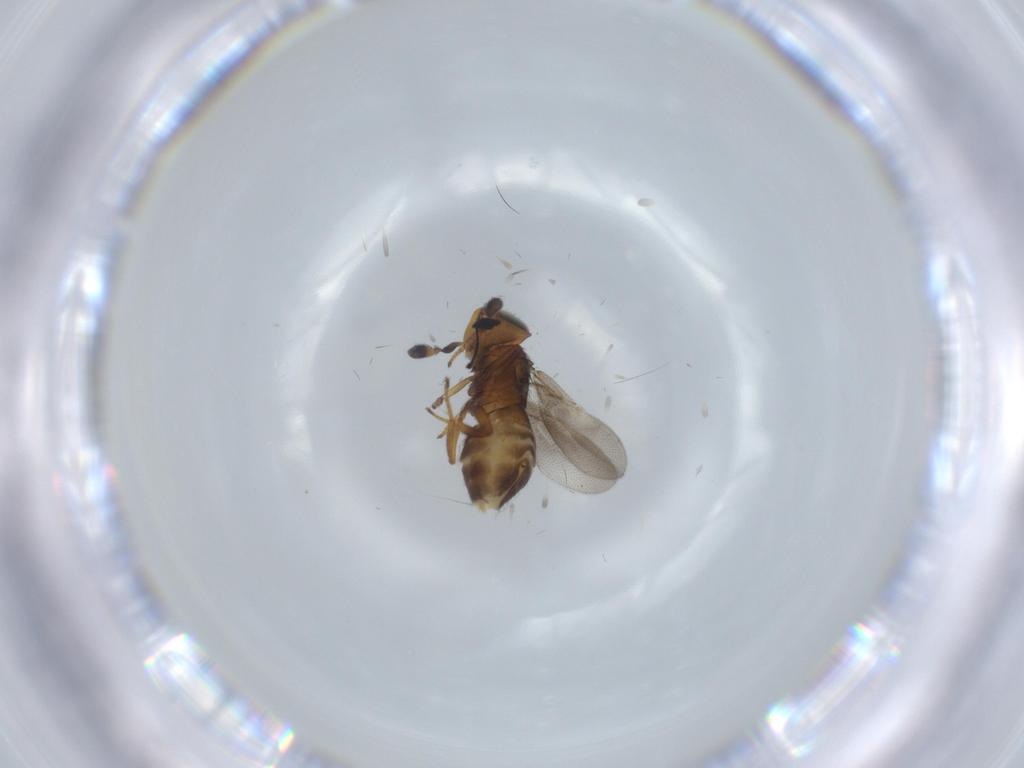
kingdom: Animalia
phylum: Arthropoda
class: Insecta
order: Hymenoptera
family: Encyrtidae
